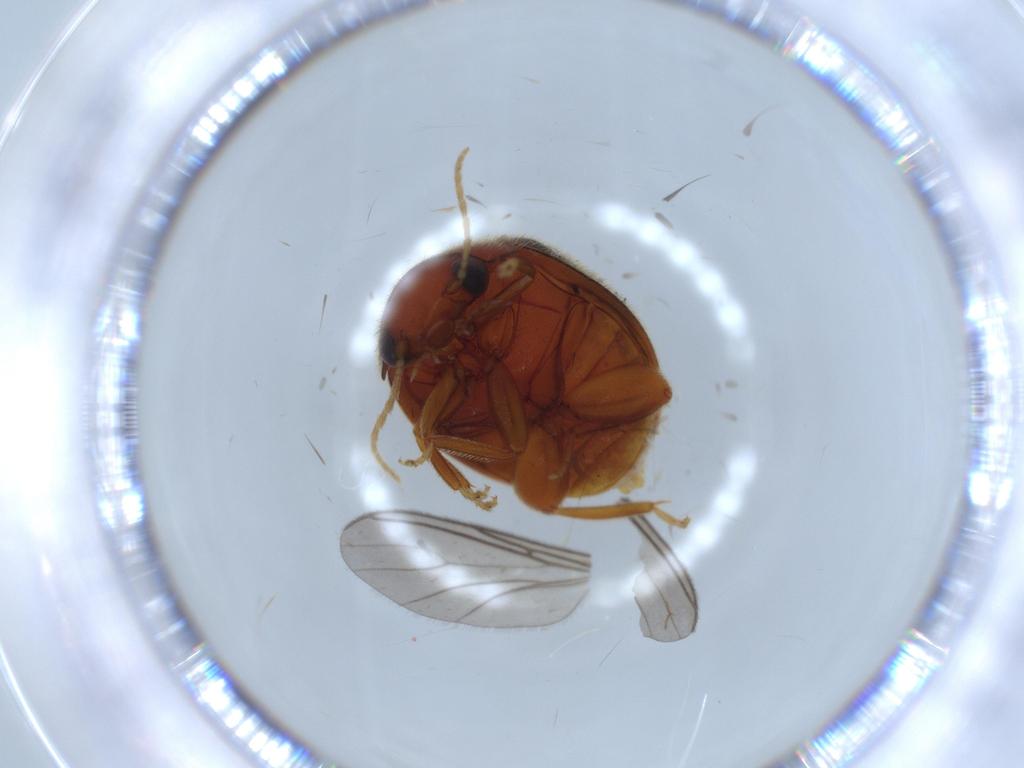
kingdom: Animalia
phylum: Arthropoda
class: Insecta
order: Coleoptera
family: Scirtidae
